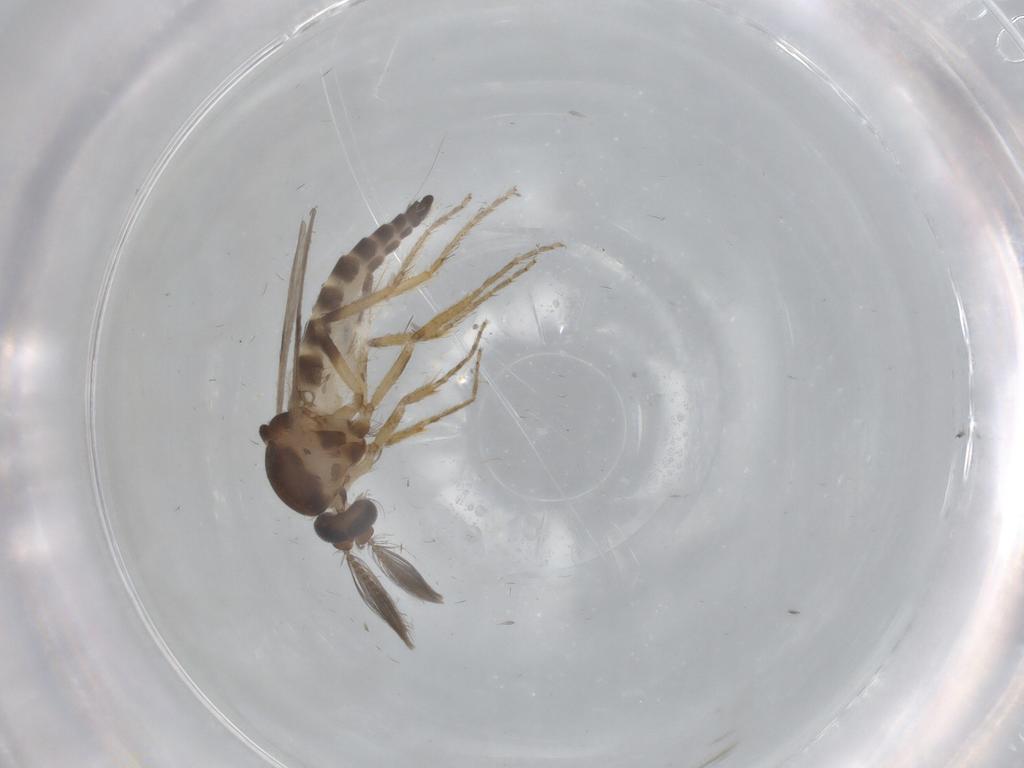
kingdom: Animalia
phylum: Arthropoda
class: Insecta
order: Diptera
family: Ceratopogonidae
